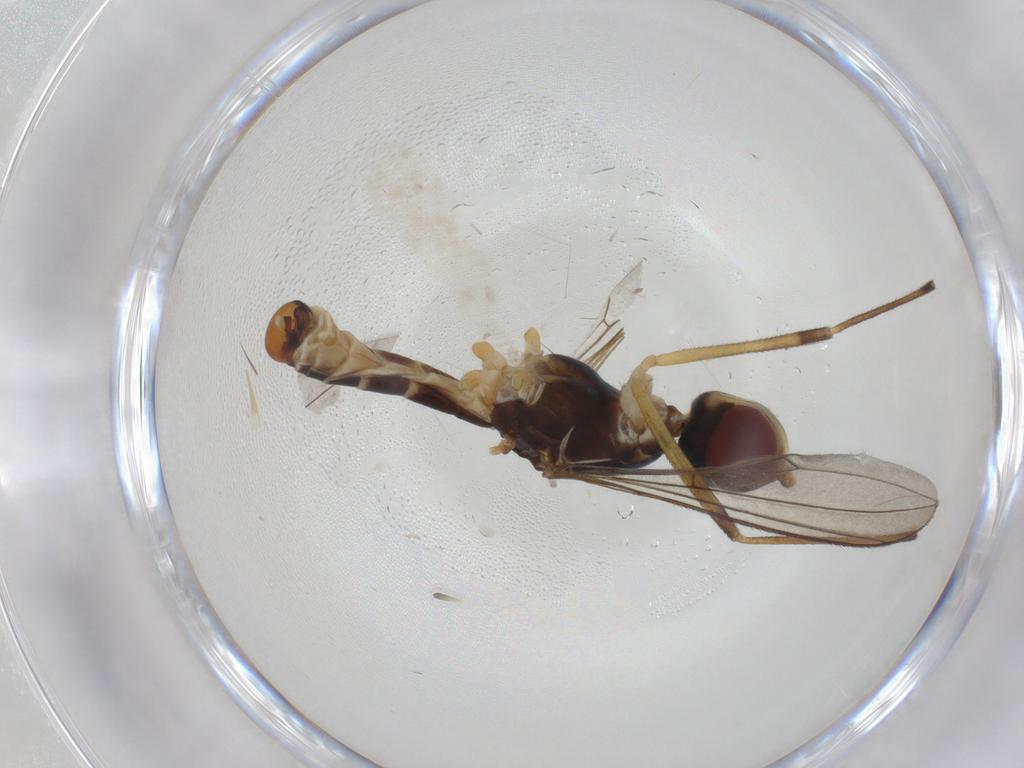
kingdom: Animalia
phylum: Arthropoda
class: Insecta
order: Diptera
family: Micropezidae
